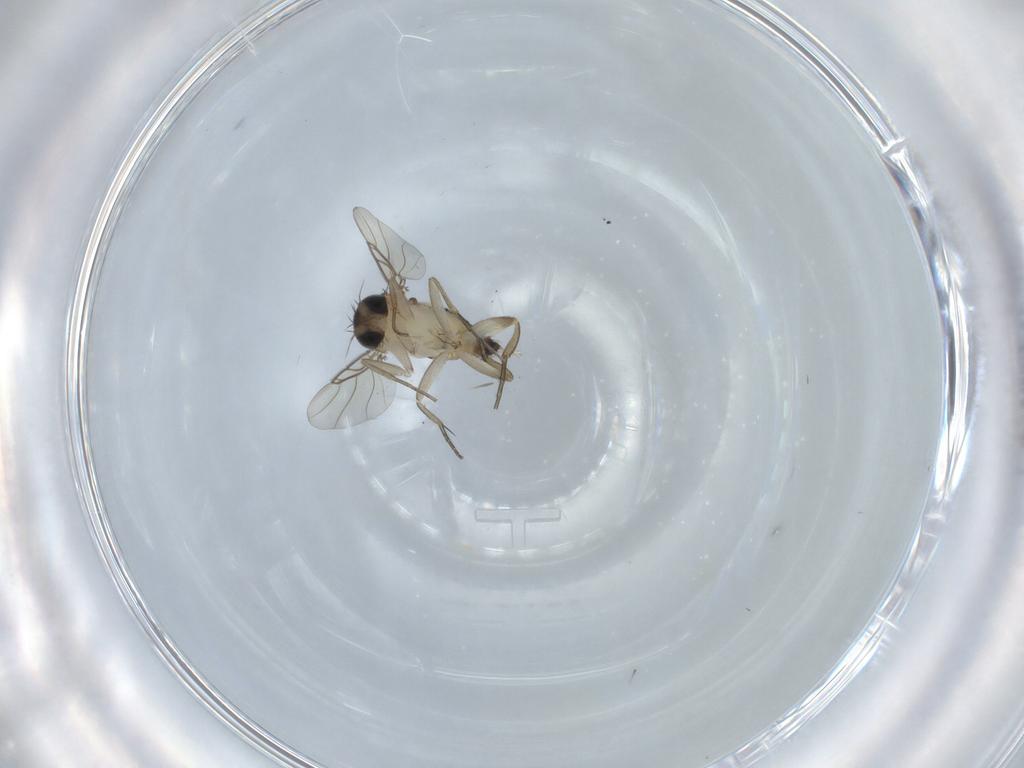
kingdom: Animalia
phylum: Arthropoda
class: Insecta
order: Diptera
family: Phoridae
